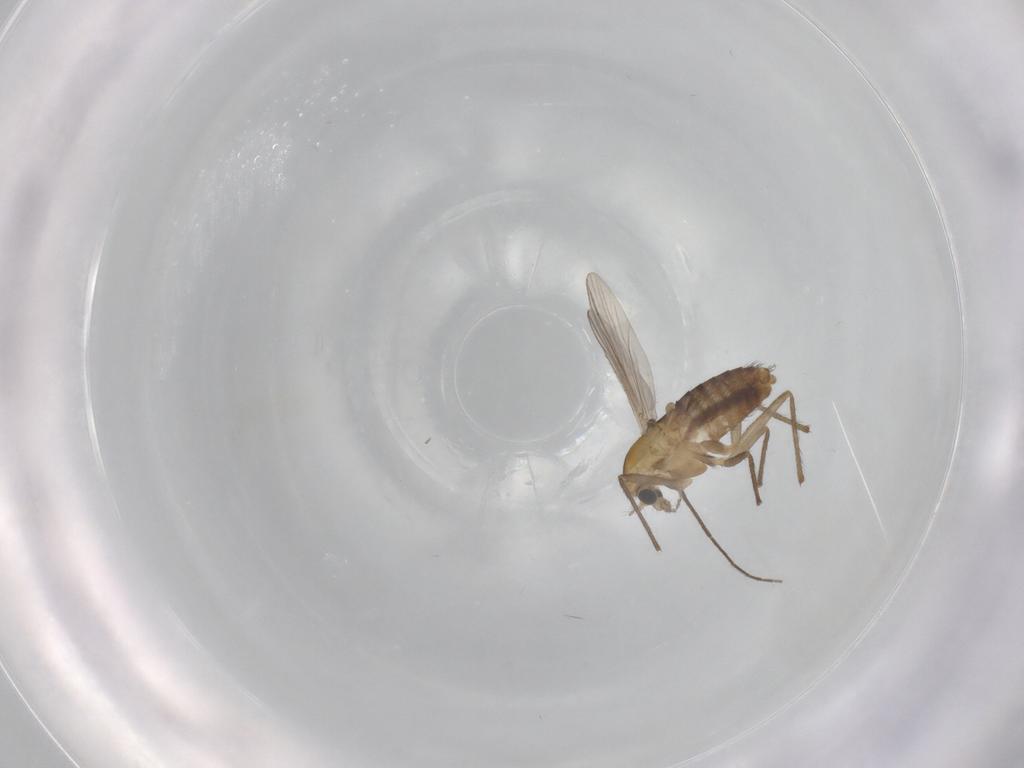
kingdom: Animalia
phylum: Arthropoda
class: Insecta
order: Diptera
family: Chironomidae
